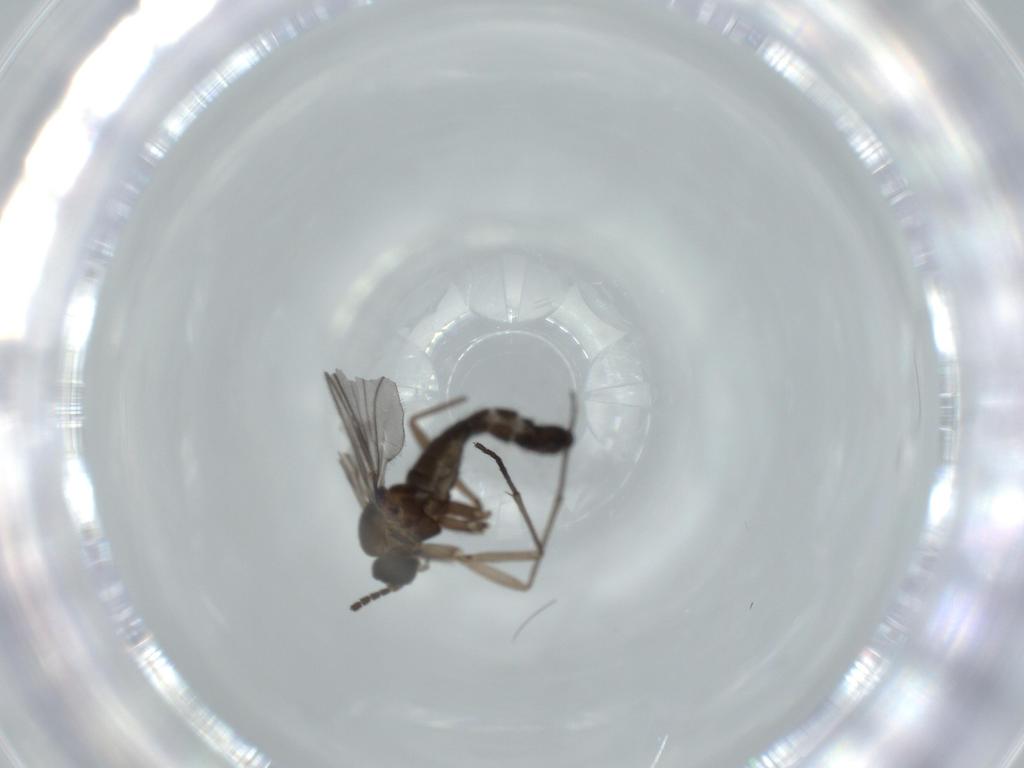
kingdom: Animalia
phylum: Arthropoda
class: Insecta
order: Diptera
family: Sciaridae
